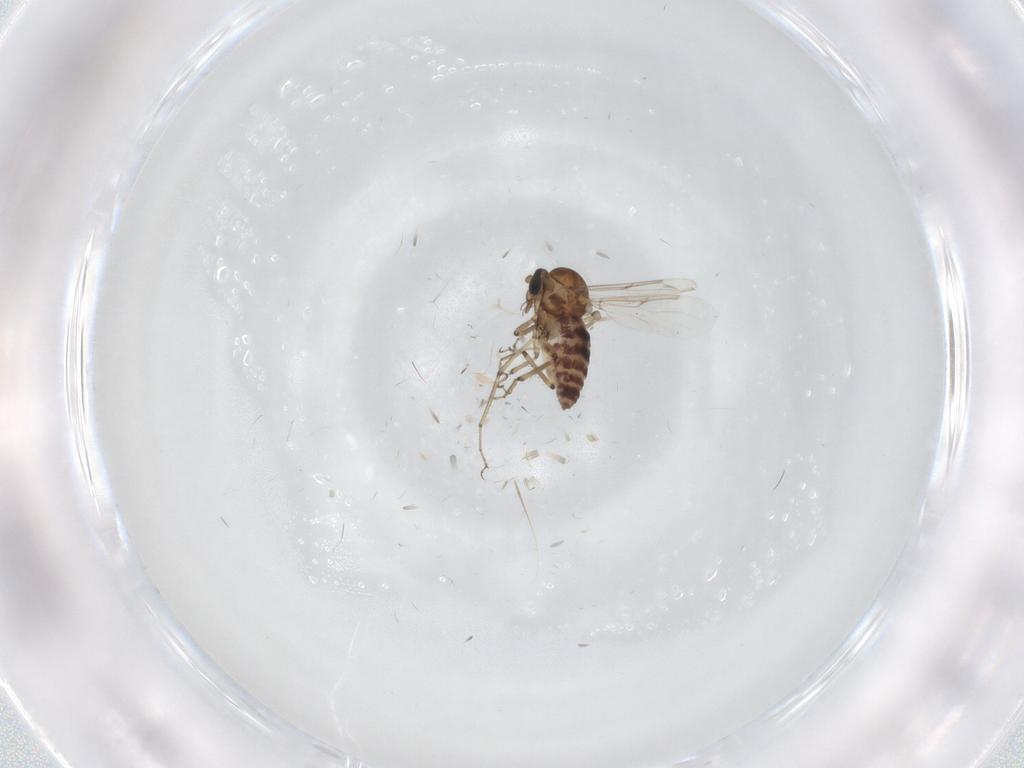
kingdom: Animalia
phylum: Arthropoda
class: Insecta
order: Diptera
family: Ceratopogonidae
